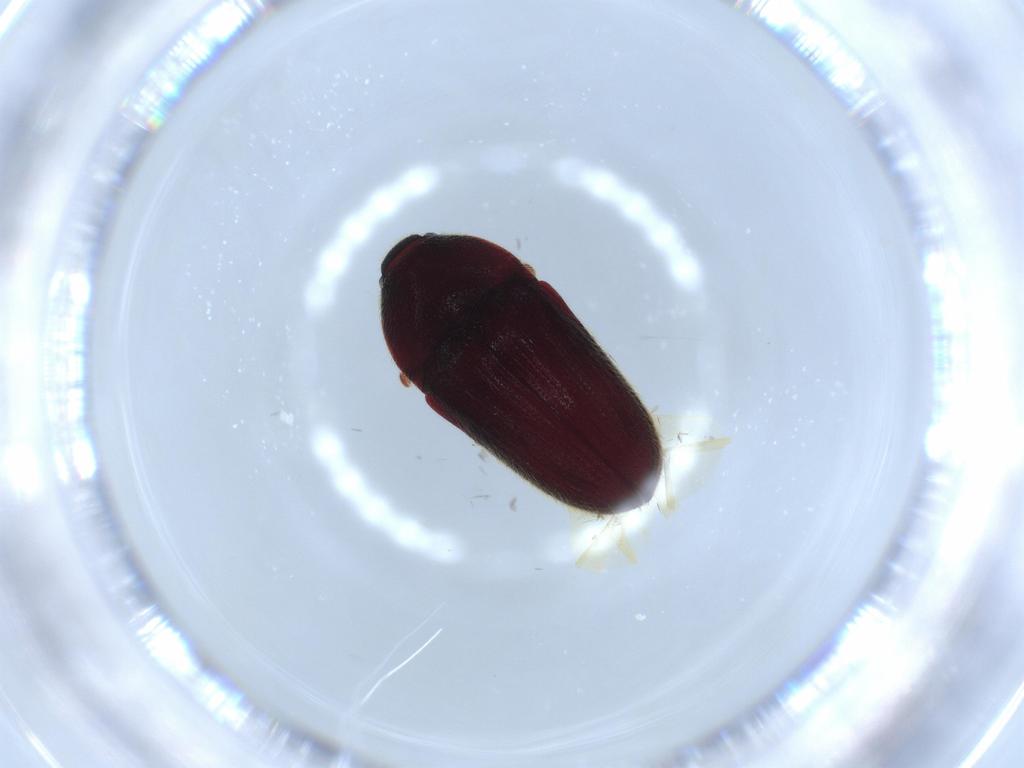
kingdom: Animalia
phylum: Arthropoda
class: Insecta
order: Coleoptera
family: Throscidae
